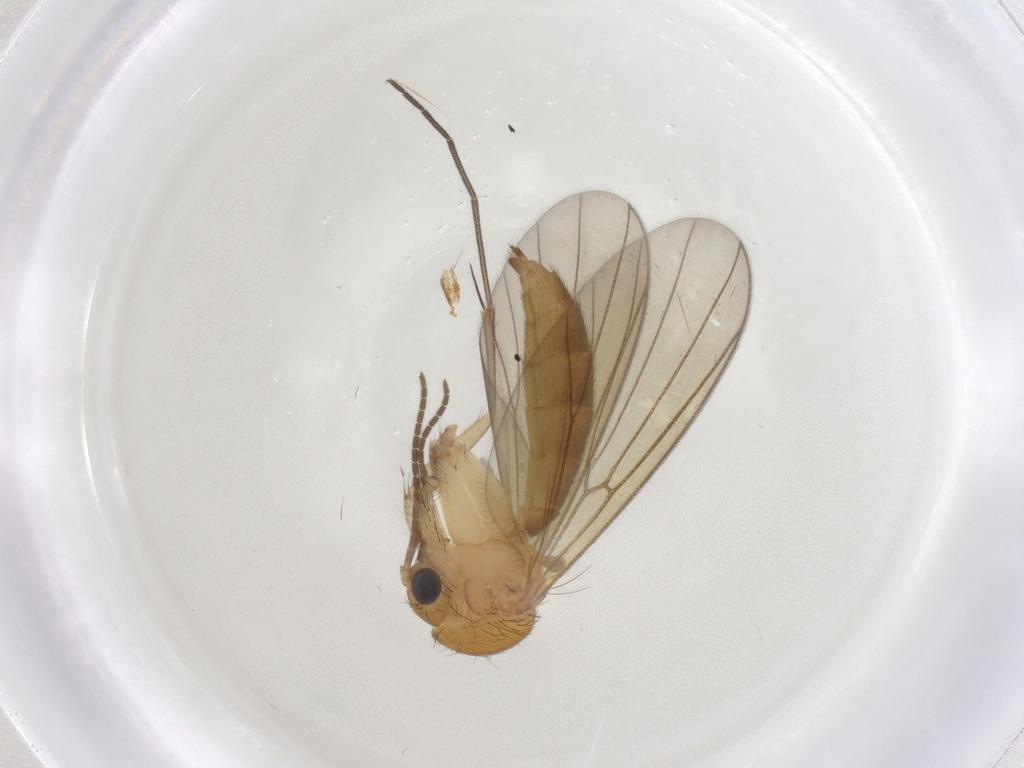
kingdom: Animalia
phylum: Arthropoda
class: Insecta
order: Diptera
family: Mycetophilidae
